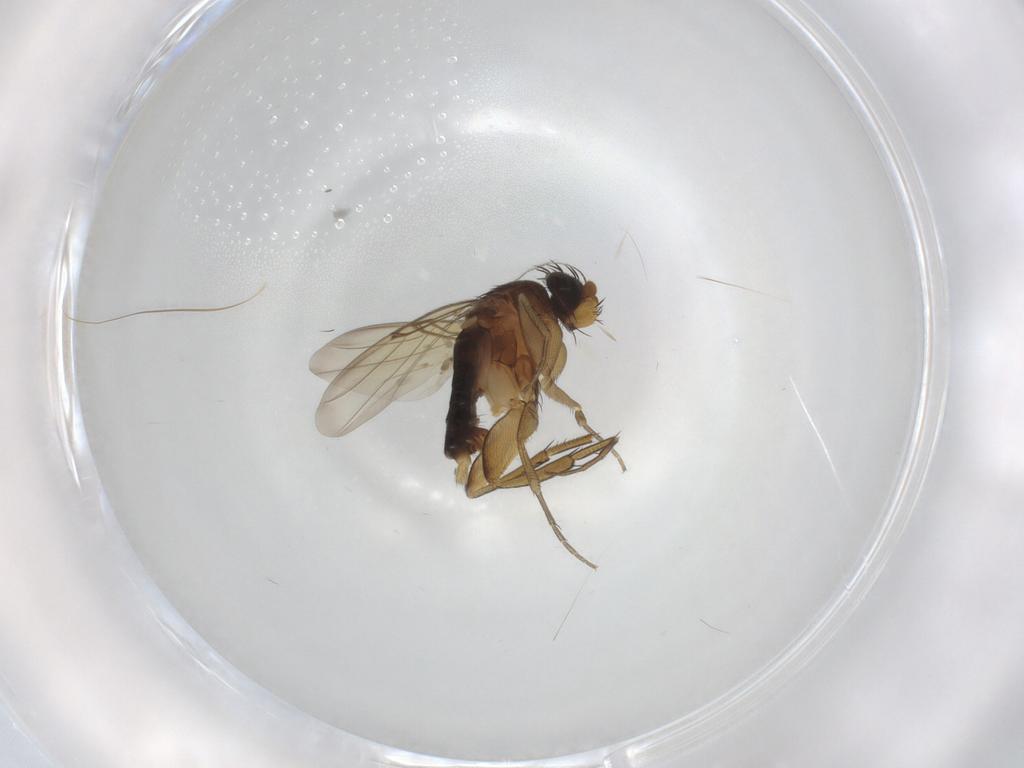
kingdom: Animalia
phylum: Arthropoda
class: Insecta
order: Diptera
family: Phoridae
